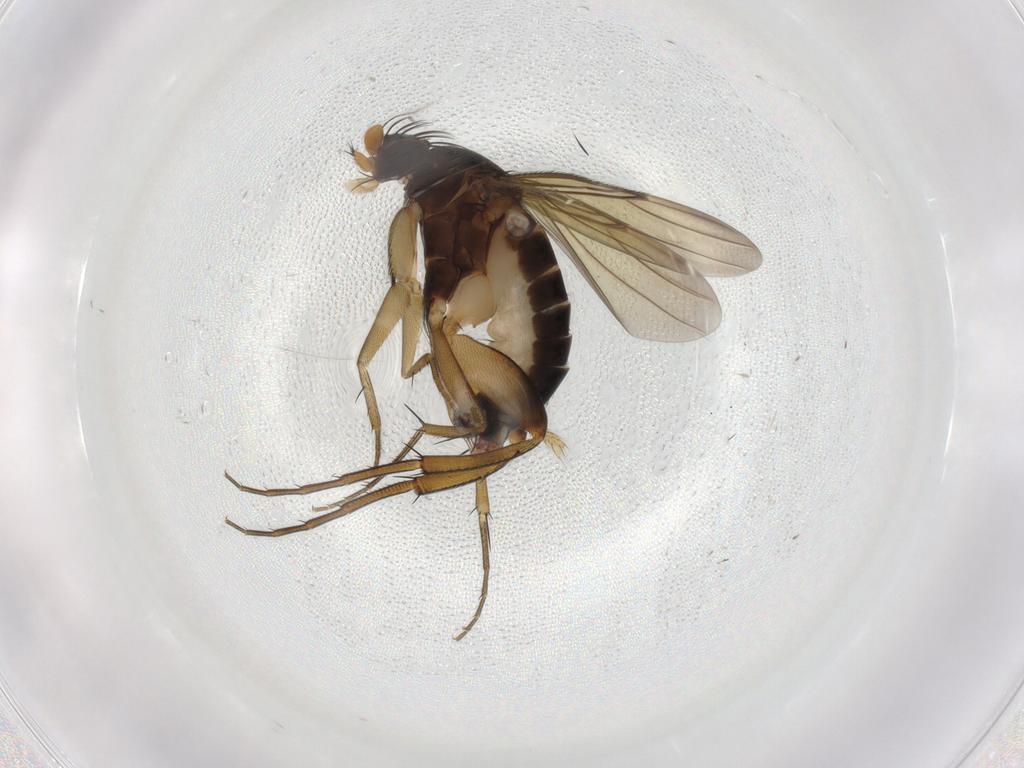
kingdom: Animalia
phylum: Arthropoda
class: Insecta
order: Diptera
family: Phoridae
